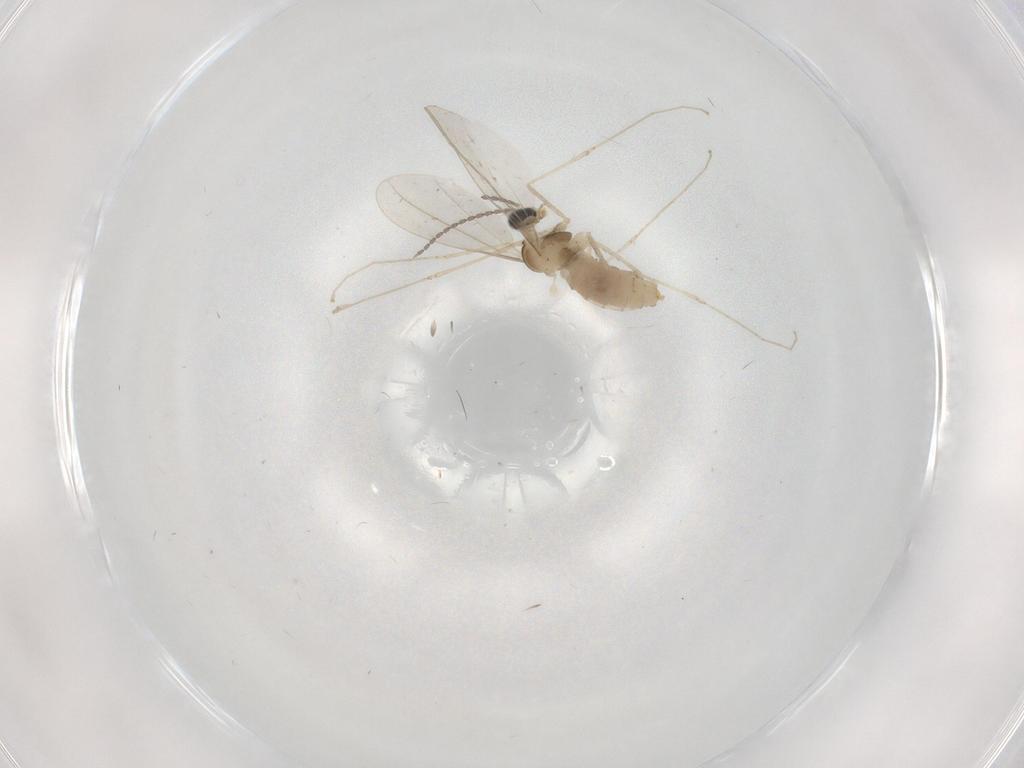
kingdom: Animalia
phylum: Arthropoda
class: Insecta
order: Diptera
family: Cecidomyiidae
